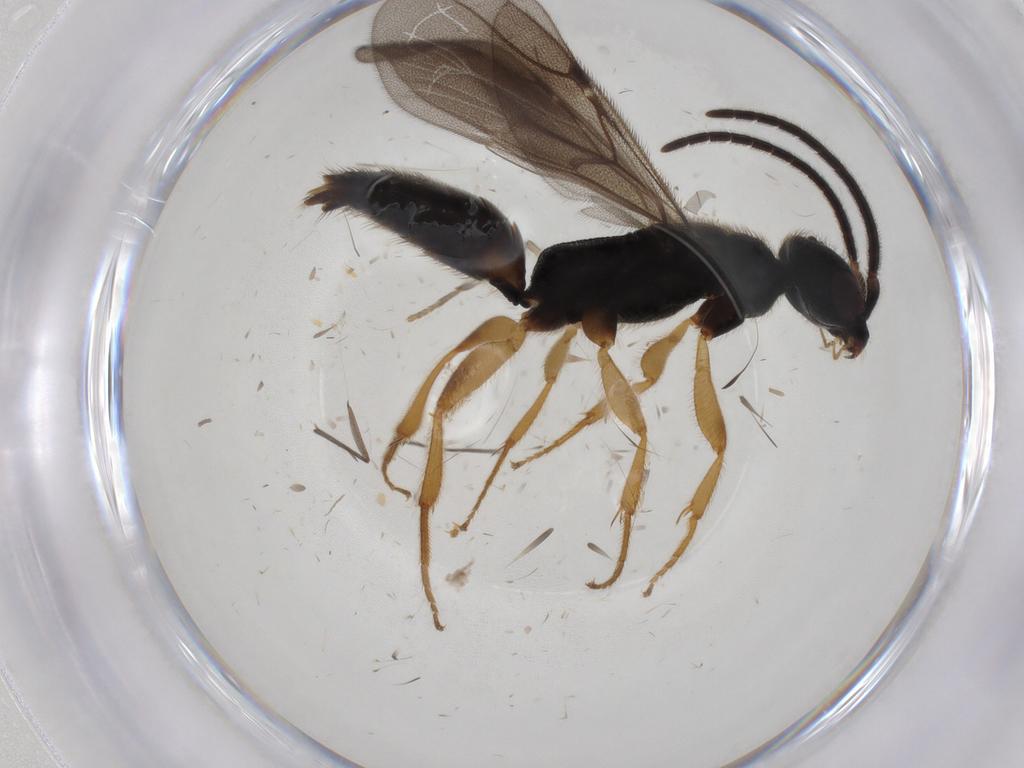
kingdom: Animalia
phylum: Arthropoda
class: Insecta
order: Hymenoptera
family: Bethylidae
